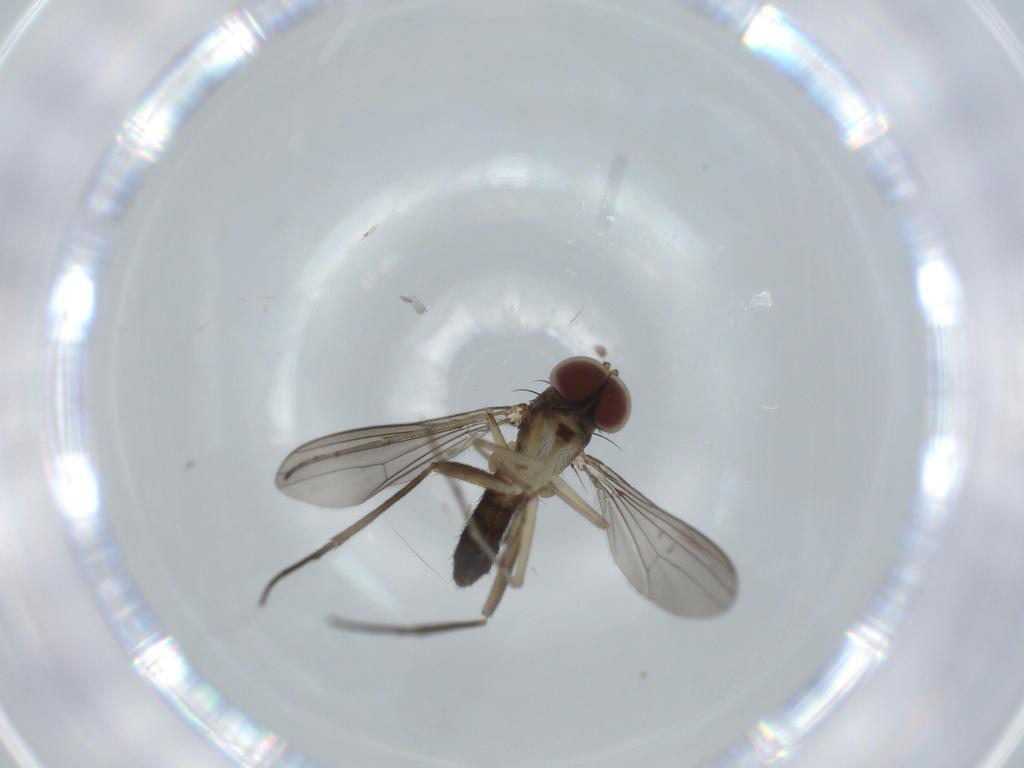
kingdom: Animalia
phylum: Arthropoda
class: Insecta
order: Diptera
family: Dolichopodidae
